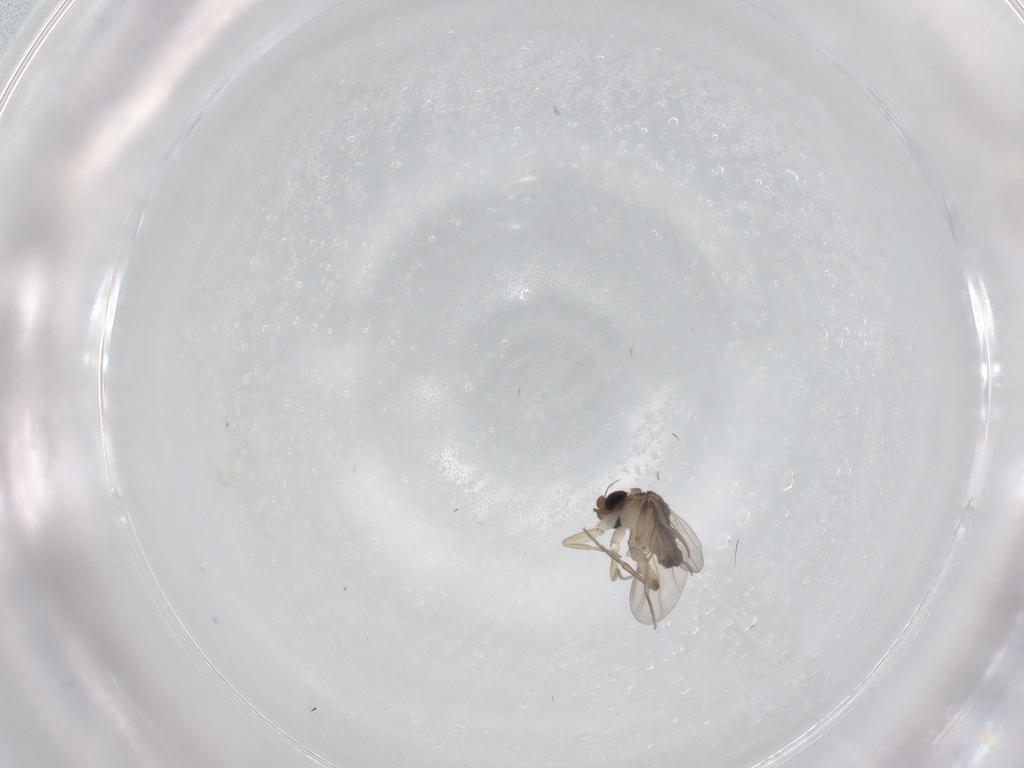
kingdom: Animalia
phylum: Arthropoda
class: Insecta
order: Diptera
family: Phoridae
